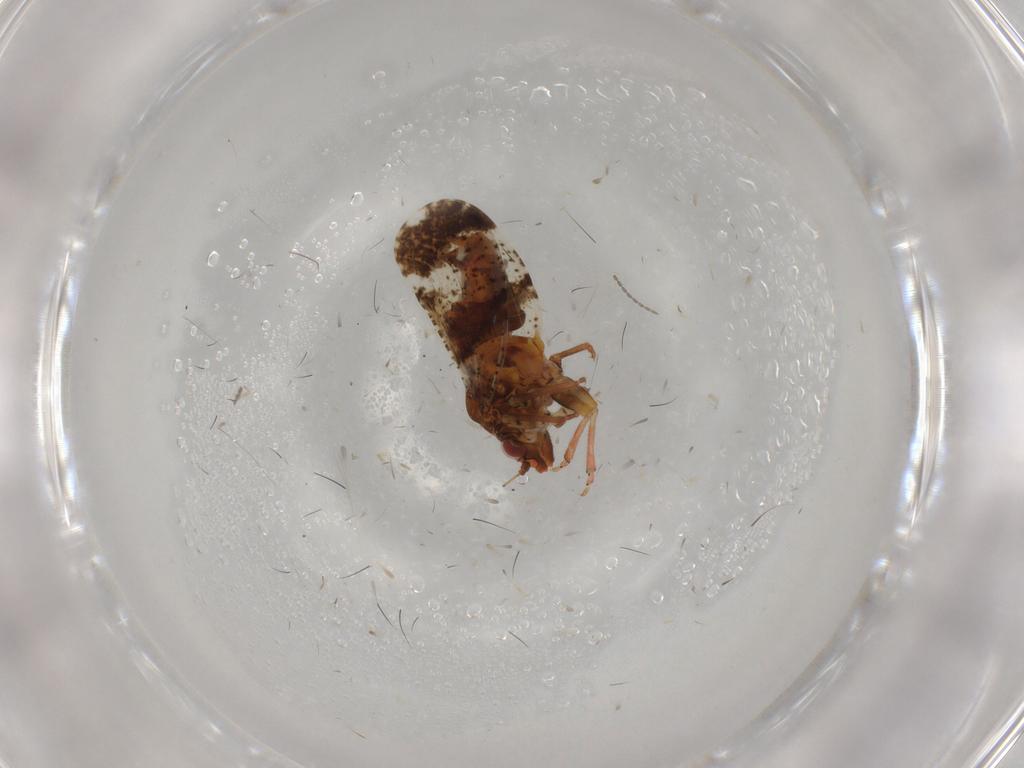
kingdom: Animalia
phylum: Arthropoda
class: Insecta
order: Hemiptera
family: Psyllidae
